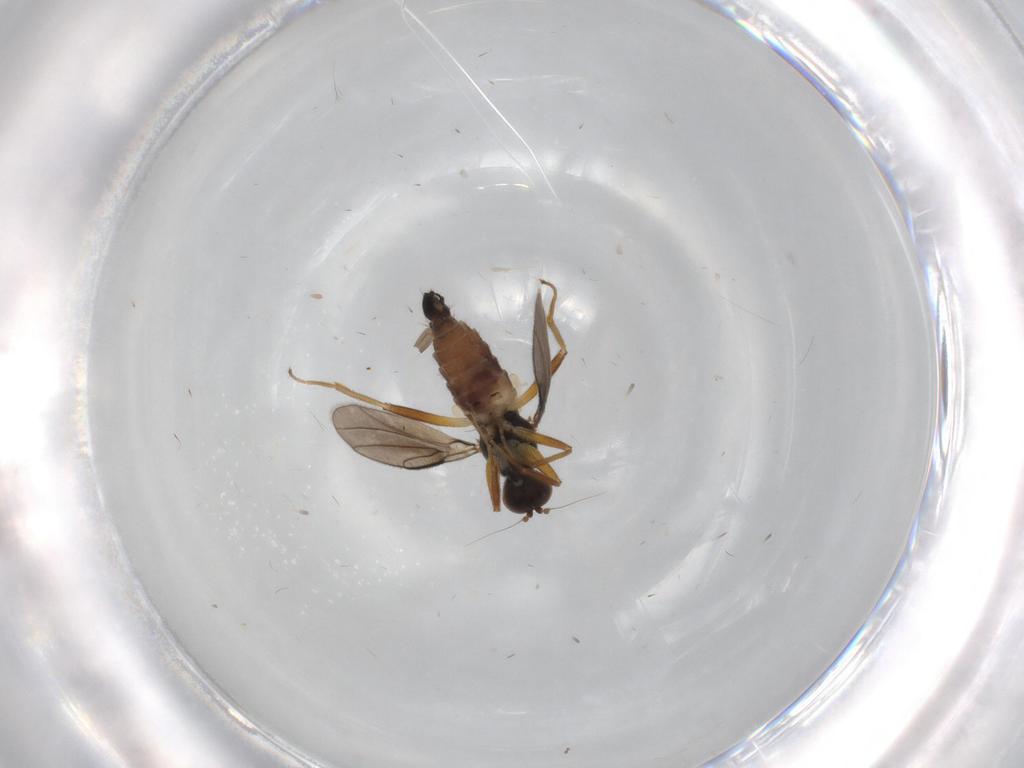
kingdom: Animalia
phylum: Arthropoda
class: Insecta
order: Diptera
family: Hybotidae
